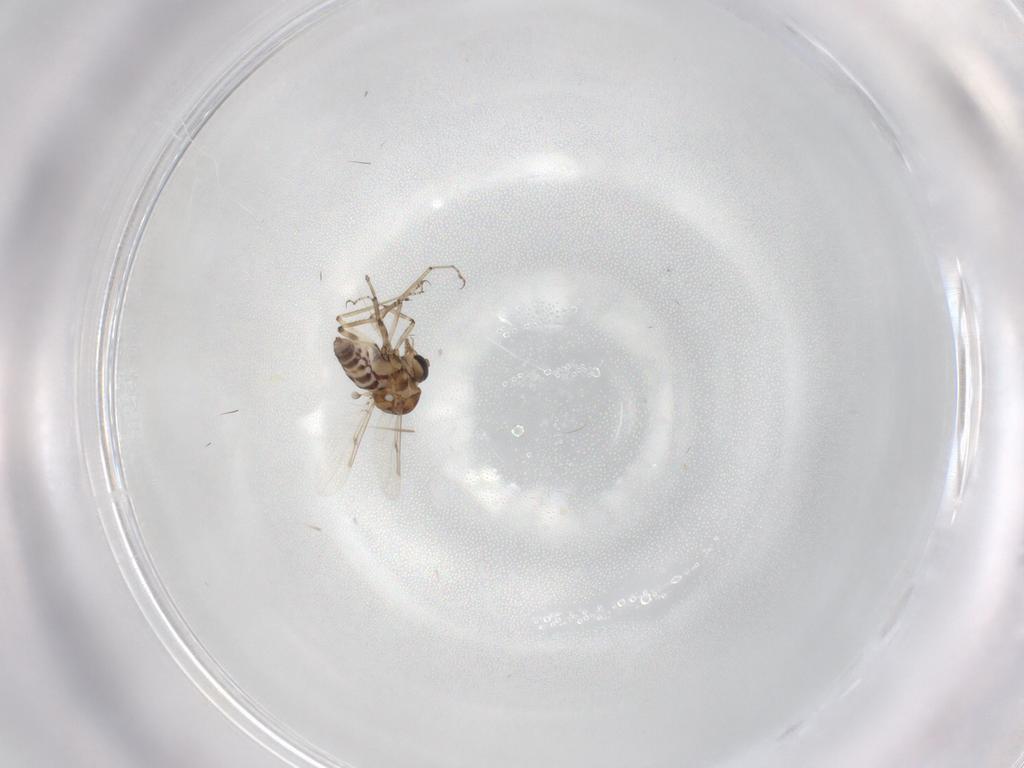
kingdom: Animalia
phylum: Arthropoda
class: Insecta
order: Diptera
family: Ceratopogonidae
